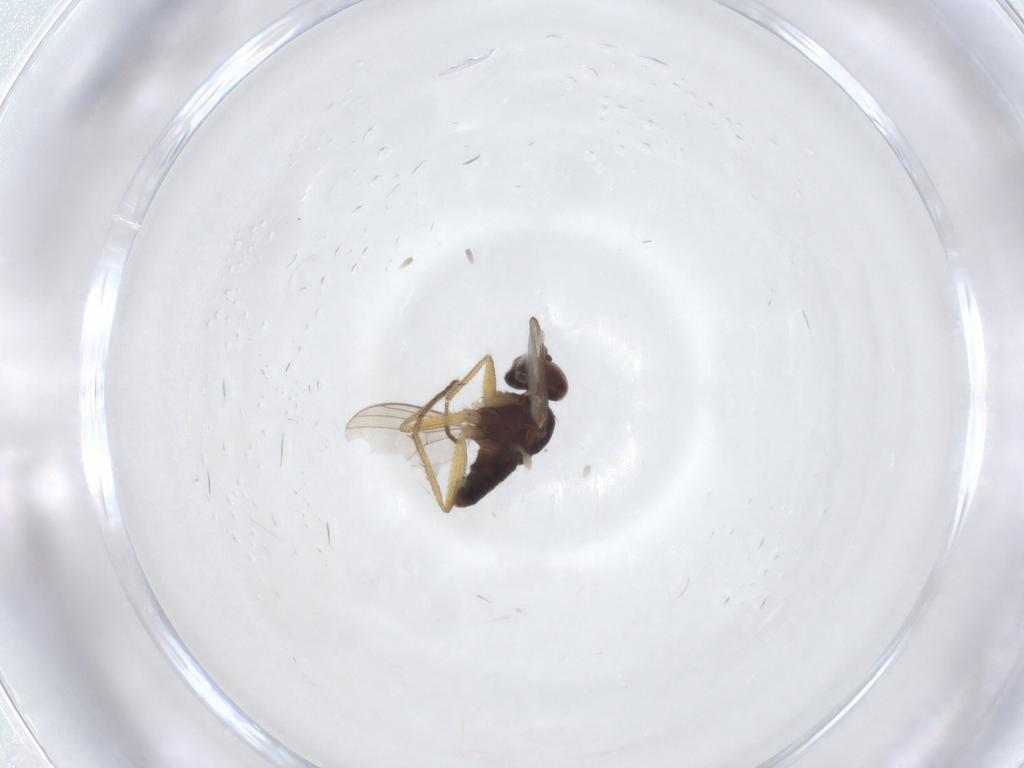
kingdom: Animalia
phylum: Arthropoda
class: Insecta
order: Diptera
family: Dolichopodidae
